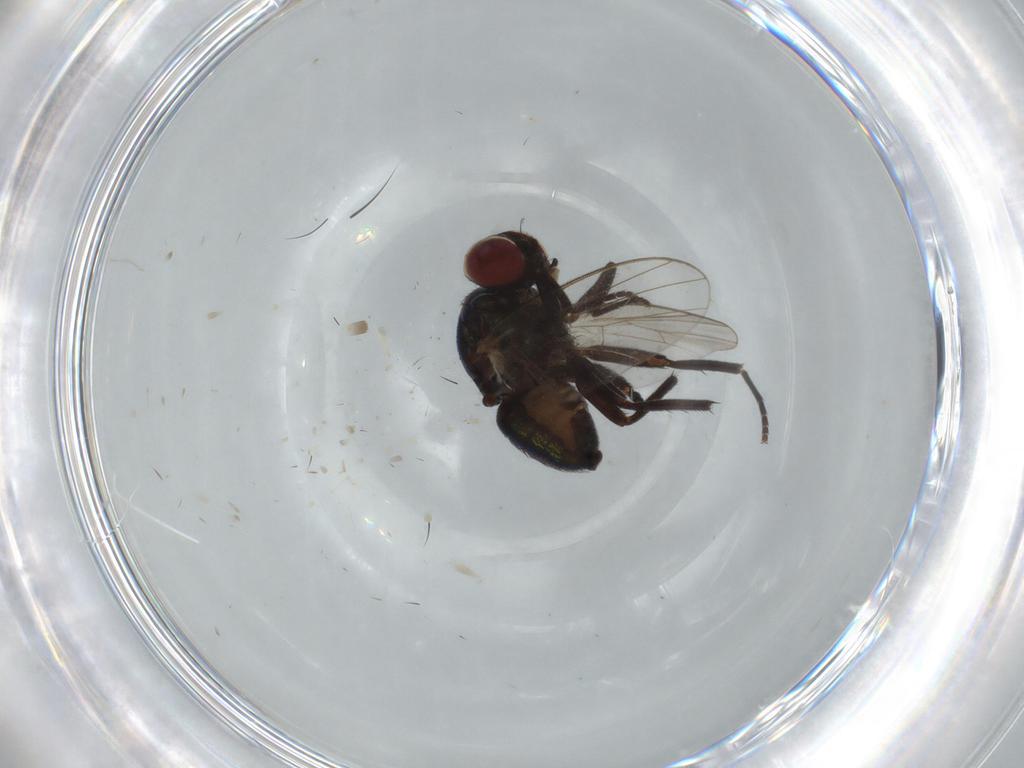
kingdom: Animalia
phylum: Arthropoda
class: Insecta
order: Diptera
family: Agromyzidae
